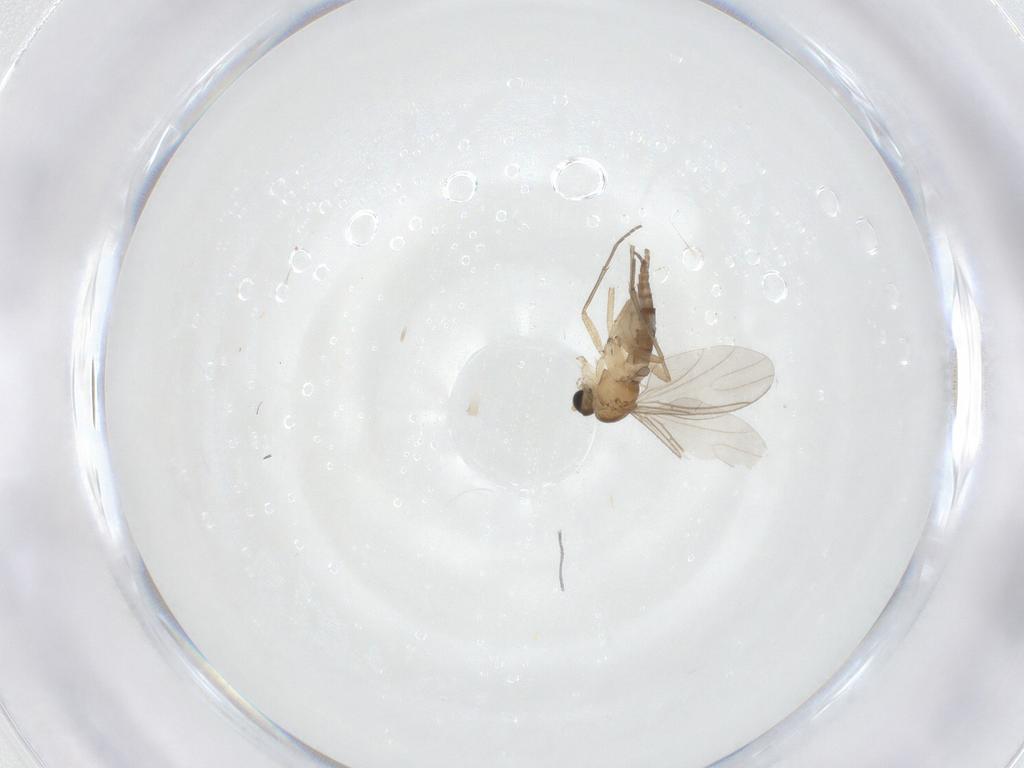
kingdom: Animalia
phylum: Arthropoda
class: Insecta
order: Diptera
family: Sciaridae
